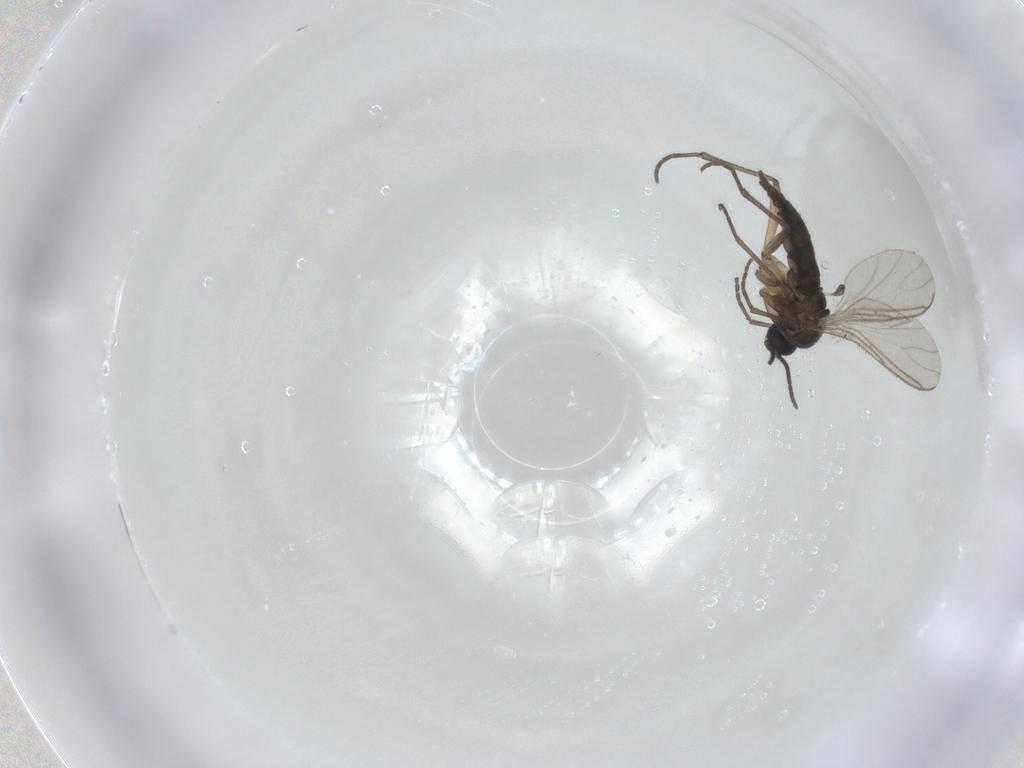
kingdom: Animalia
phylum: Arthropoda
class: Insecta
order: Diptera
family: Sciaridae
